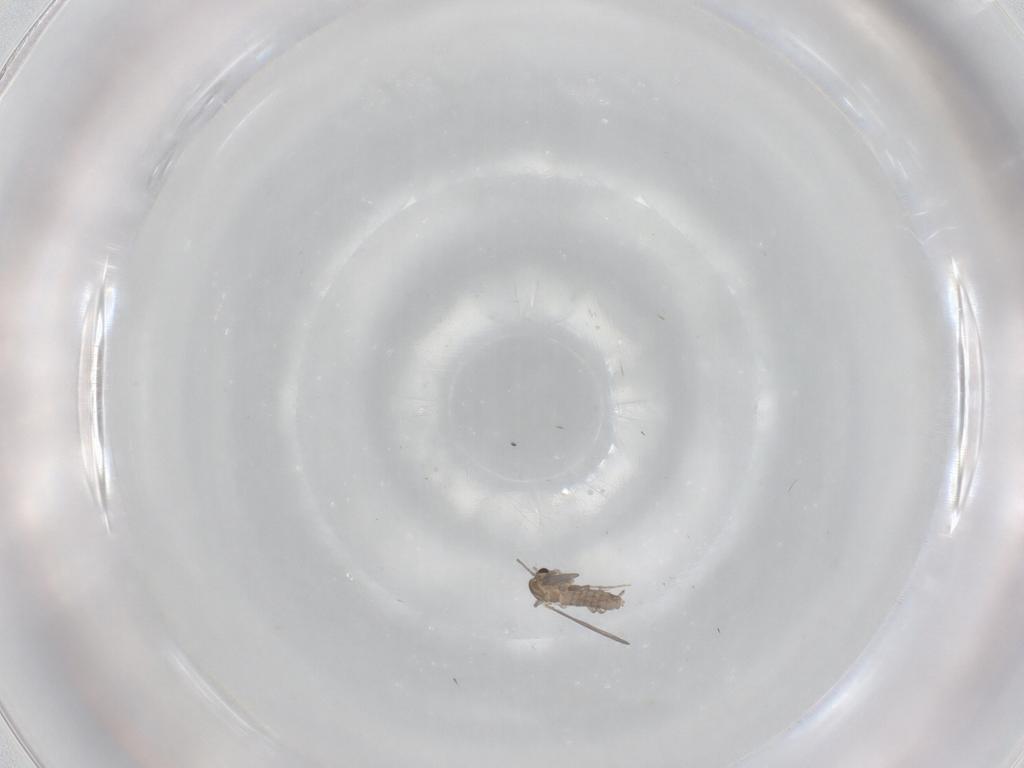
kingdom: Animalia
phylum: Arthropoda
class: Insecta
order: Diptera
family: Chironomidae
